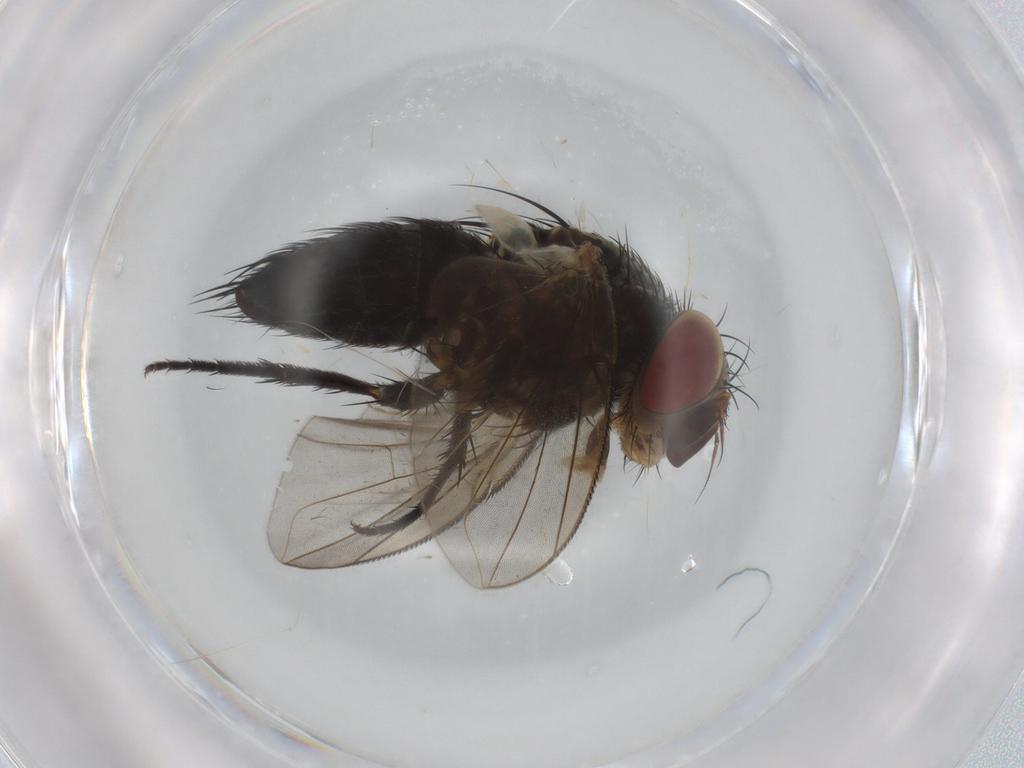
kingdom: Animalia
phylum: Arthropoda
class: Insecta
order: Diptera
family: Tachinidae
